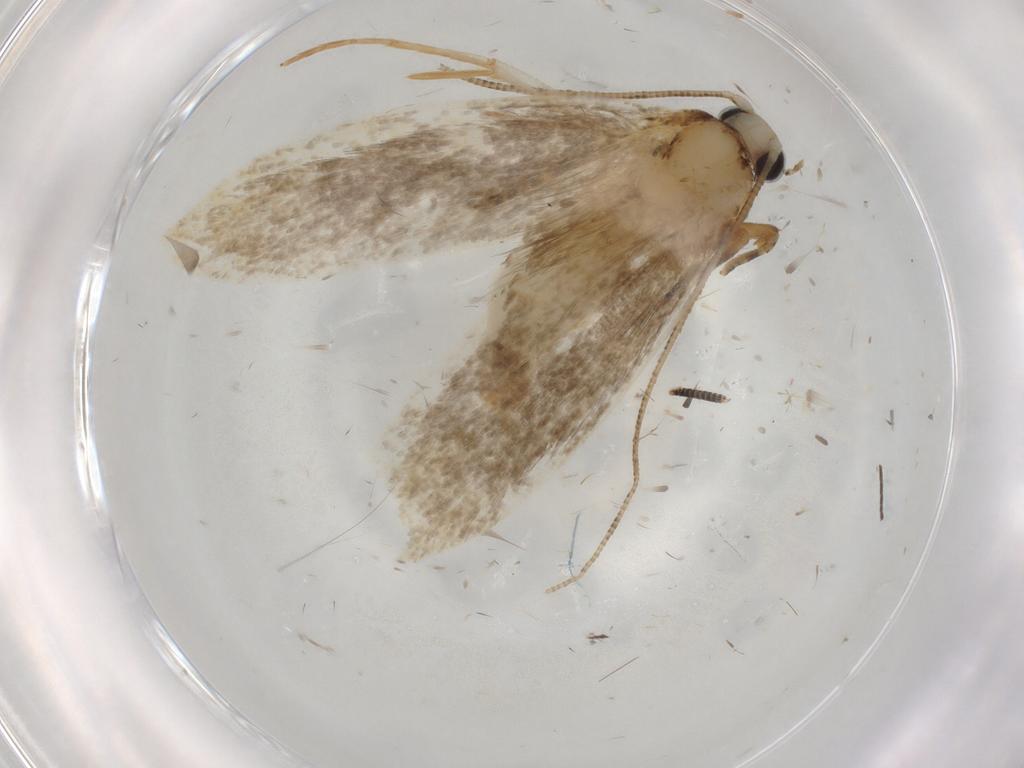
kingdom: Animalia
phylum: Arthropoda
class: Insecta
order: Lepidoptera
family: Tineidae
